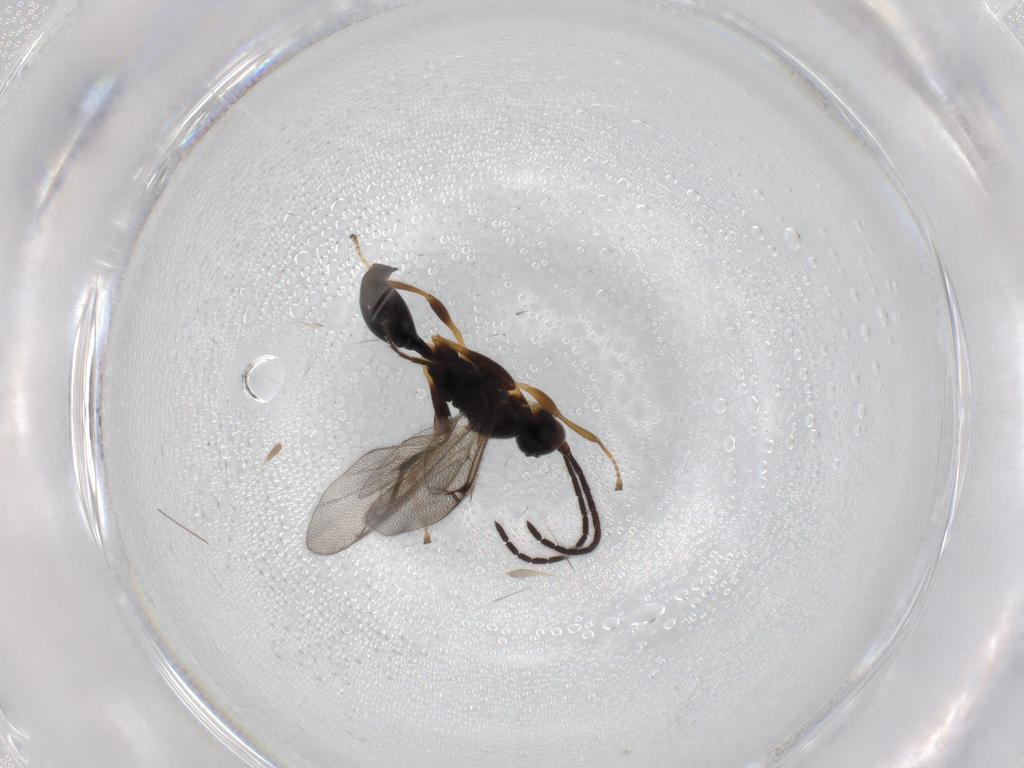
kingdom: Animalia
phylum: Arthropoda
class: Insecta
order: Hymenoptera
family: Proctotrupidae
